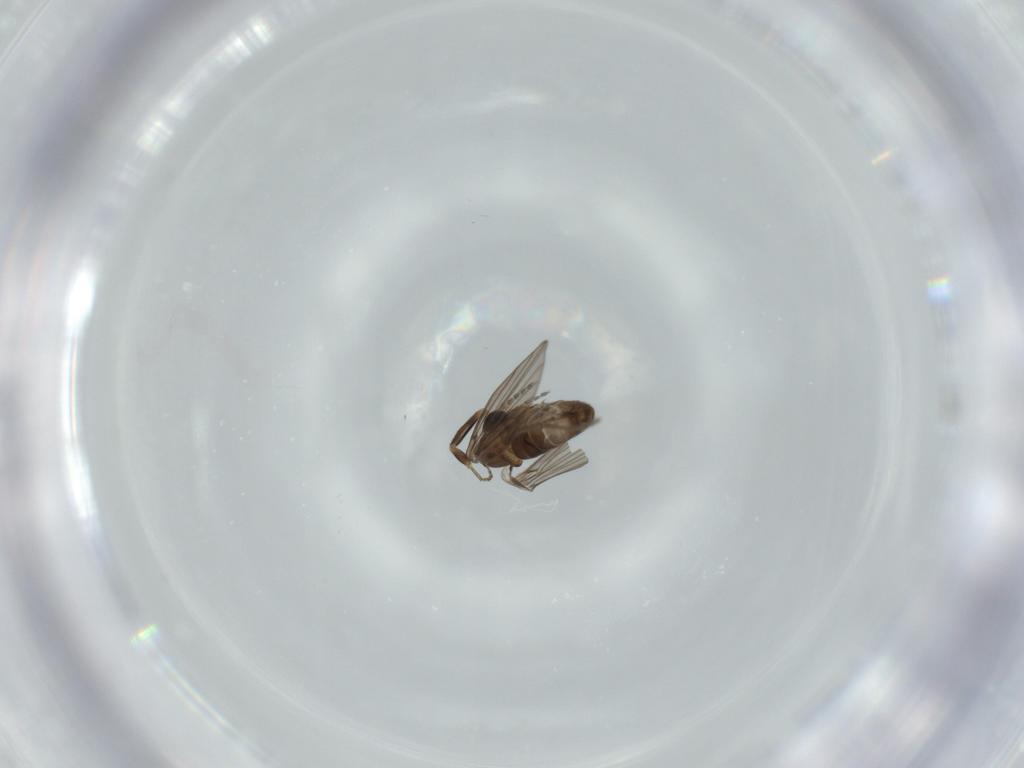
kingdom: Animalia
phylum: Arthropoda
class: Insecta
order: Diptera
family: Phoridae
